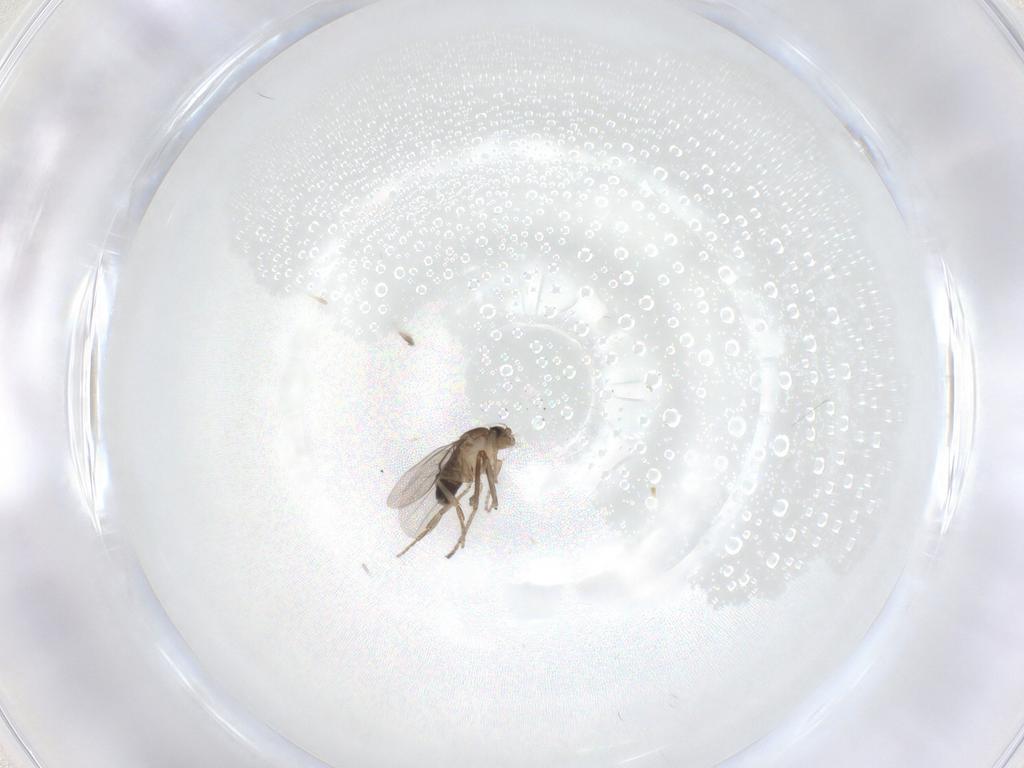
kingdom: Animalia
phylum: Arthropoda
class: Insecta
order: Diptera
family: Ceratopogonidae
